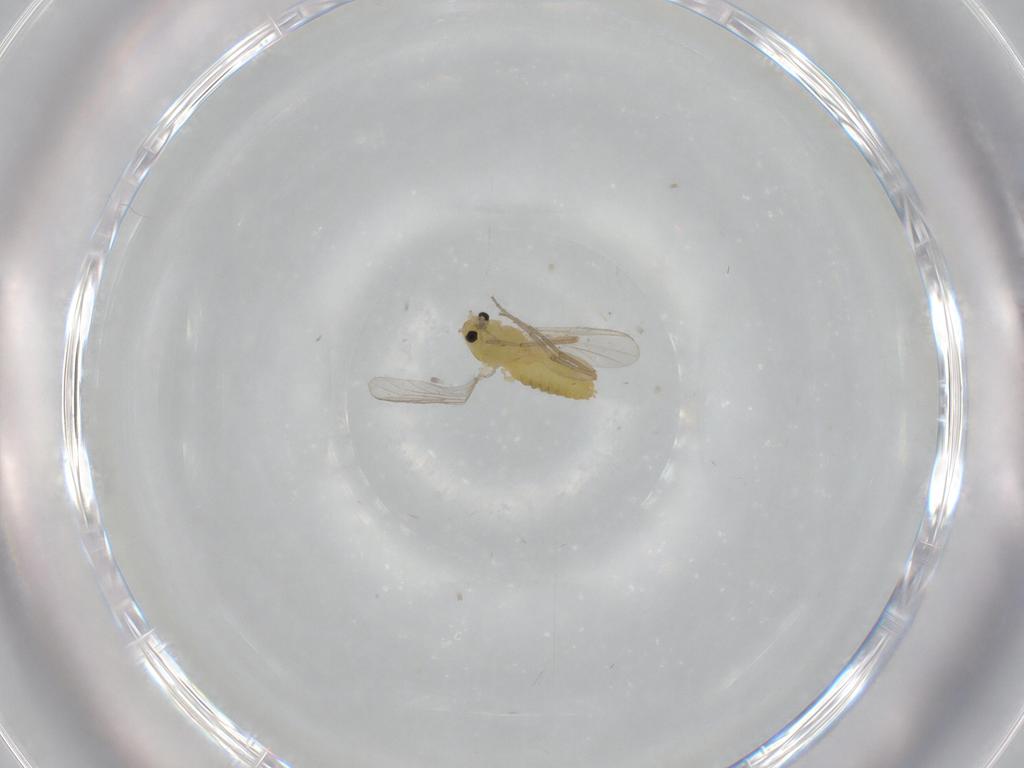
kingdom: Animalia
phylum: Arthropoda
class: Insecta
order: Diptera
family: Chironomidae
